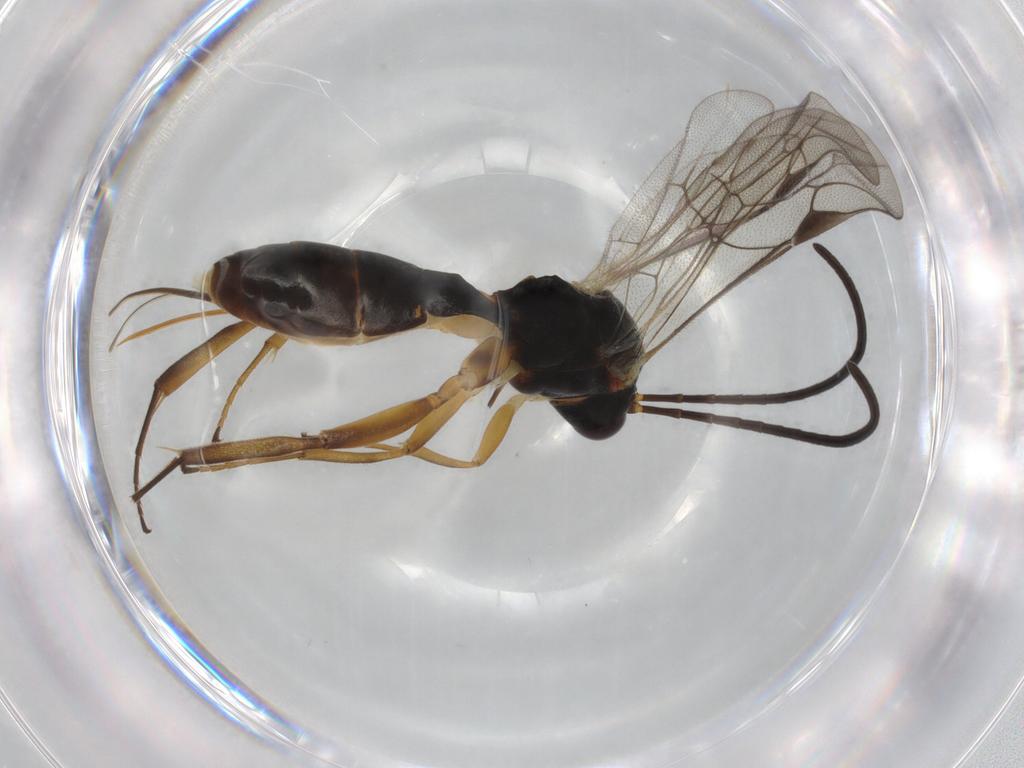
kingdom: Animalia
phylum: Arthropoda
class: Insecta
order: Hymenoptera
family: Ichneumonidae
